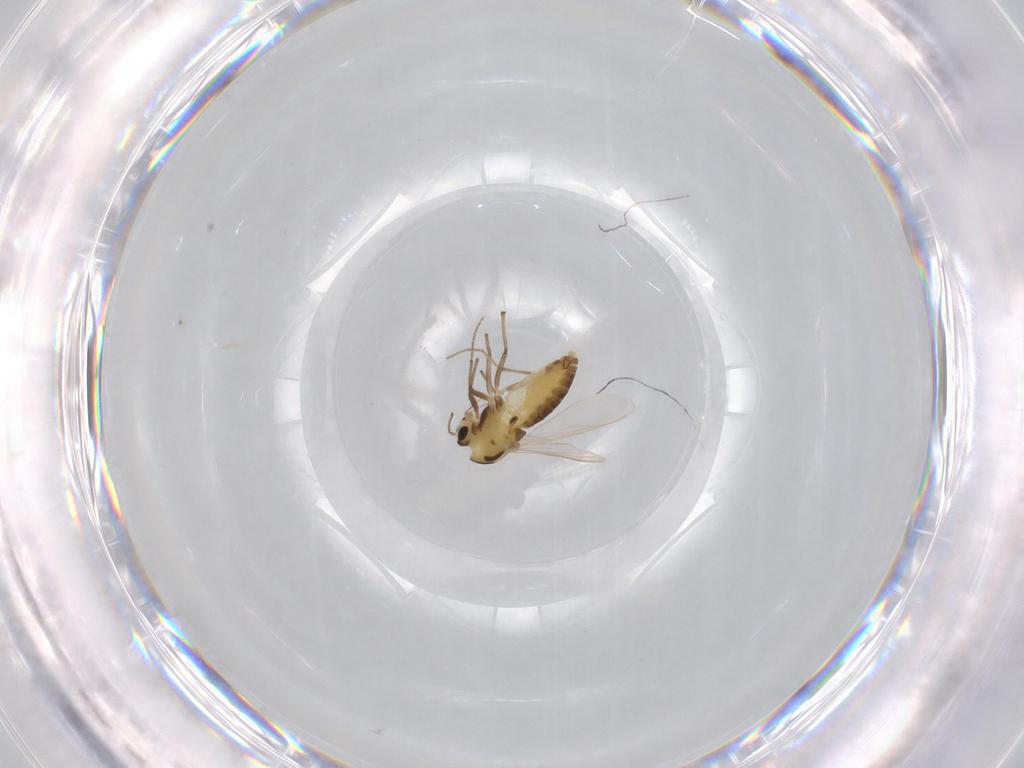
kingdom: Animalia
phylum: Arthropoda
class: Insecta
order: Diptera
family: Chironomidae
